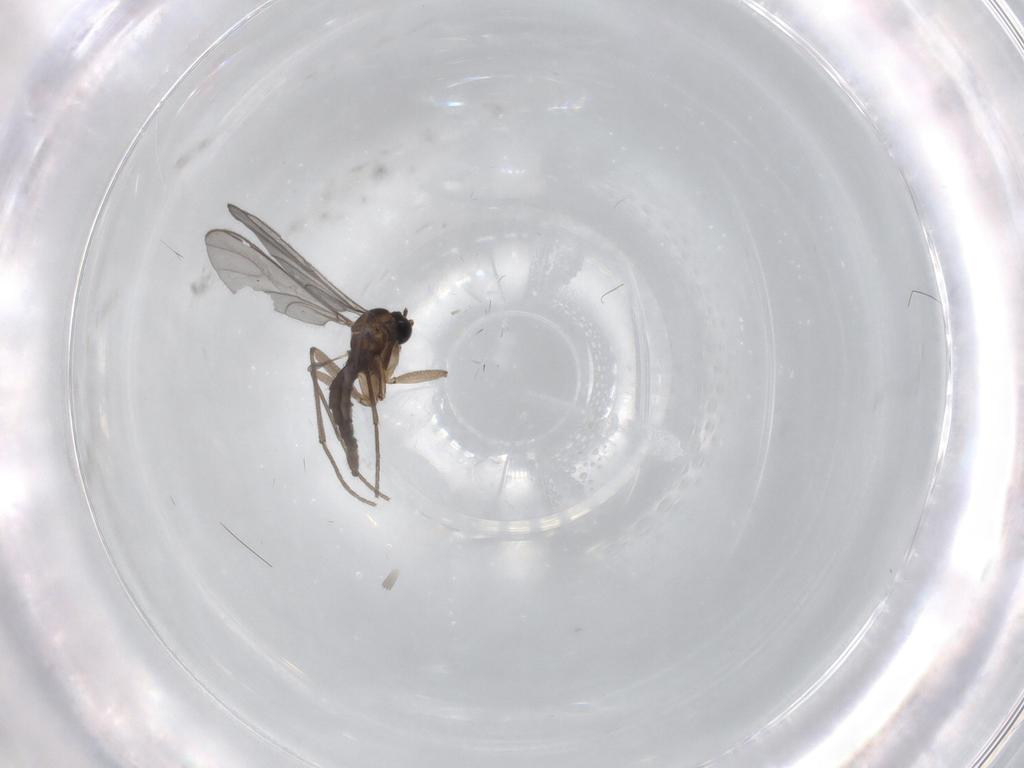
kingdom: Animalia
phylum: Arthropoda
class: Insecta
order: Diptera
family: Sciaridae
